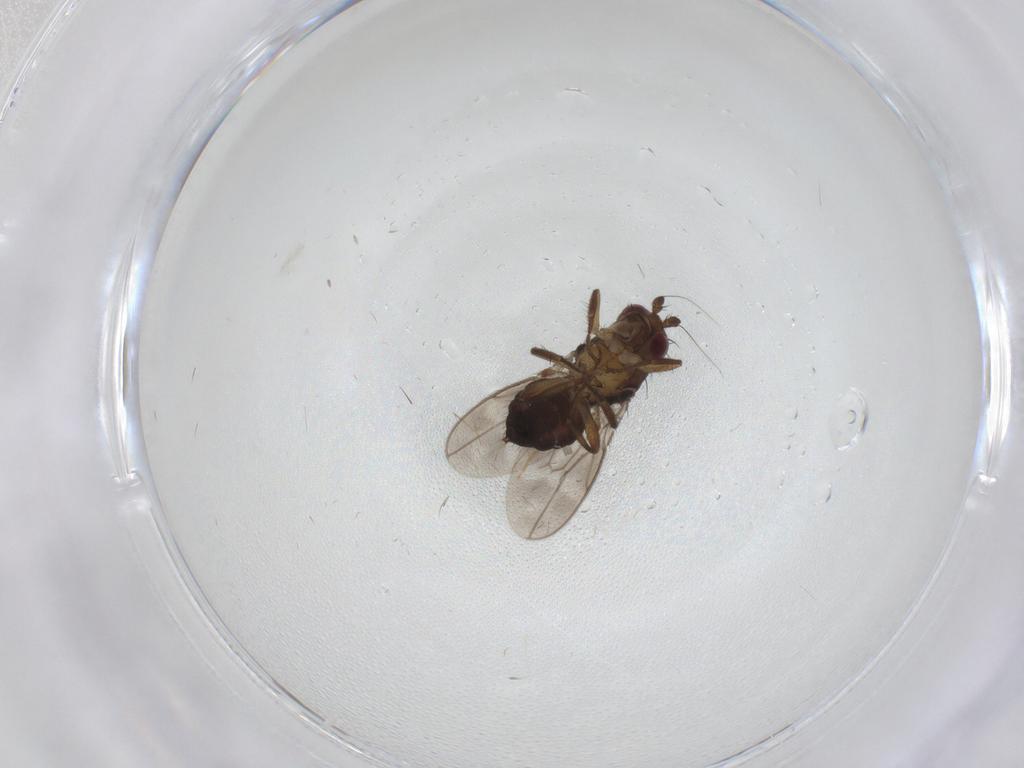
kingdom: Animalia
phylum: Arthropoda
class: Insecta
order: Diptera
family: Sphaeroceridae
